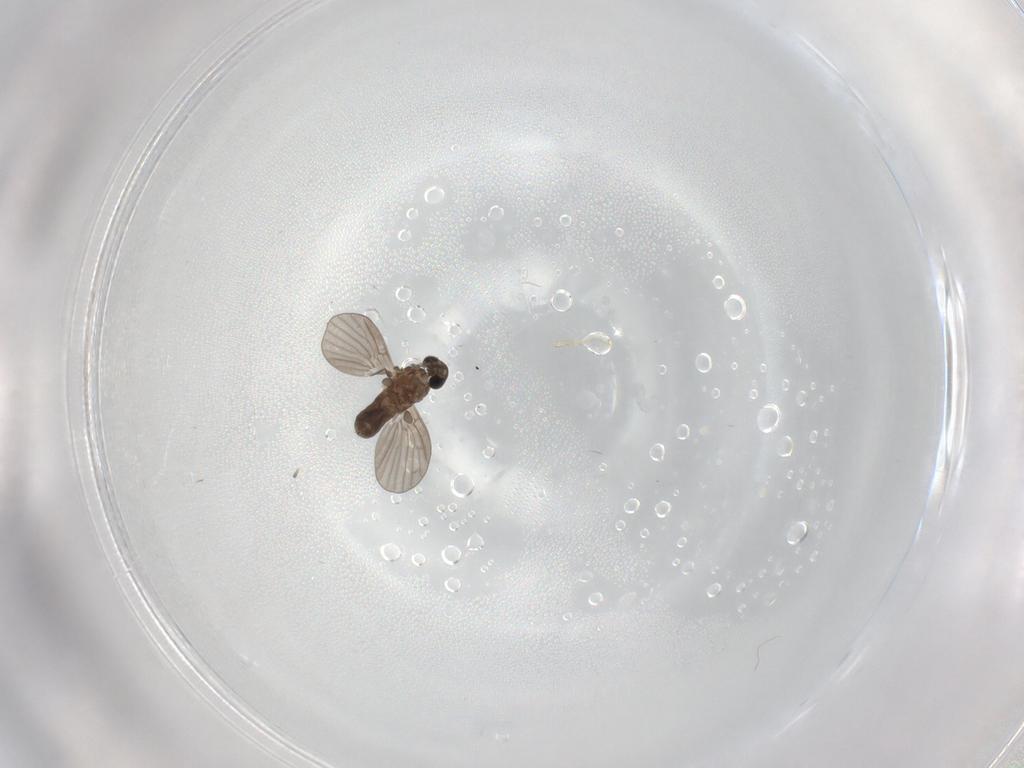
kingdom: Animalia
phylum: Arthropoda
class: Insecta
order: Diptera
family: Psychodidae
